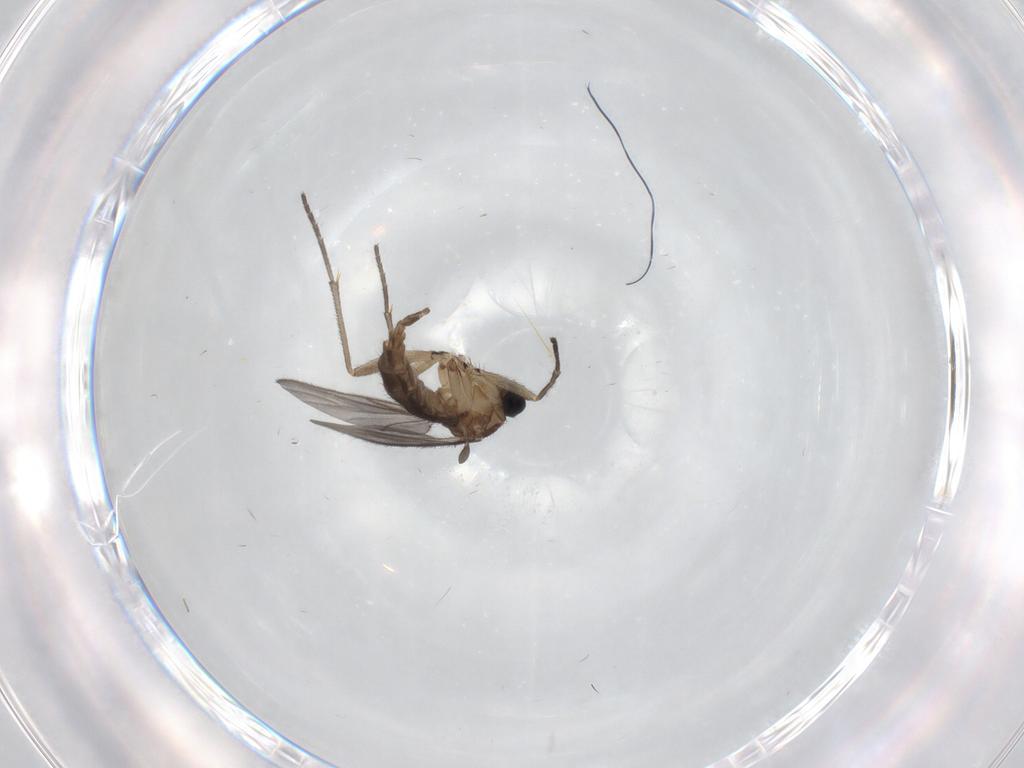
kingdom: Animalia
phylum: Arthropoda
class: Insecta
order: Diptera
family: Sciaridae
